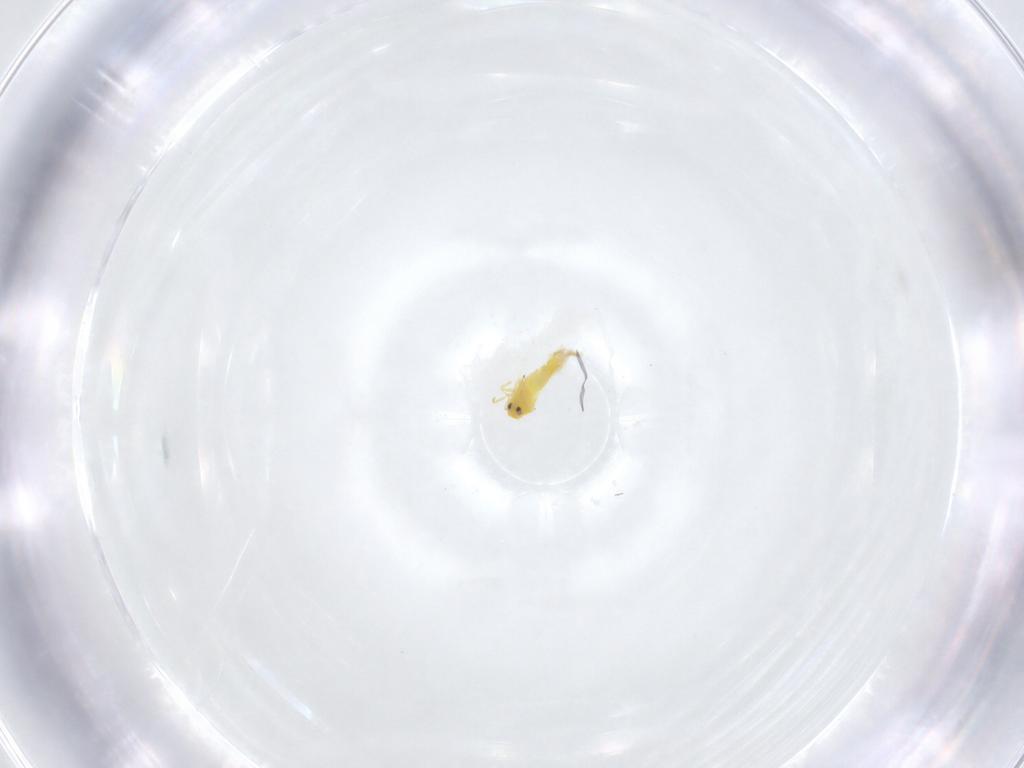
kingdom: Animalia
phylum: Arthropoda
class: Insecta
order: Hemiptera
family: Aleyrodidae
